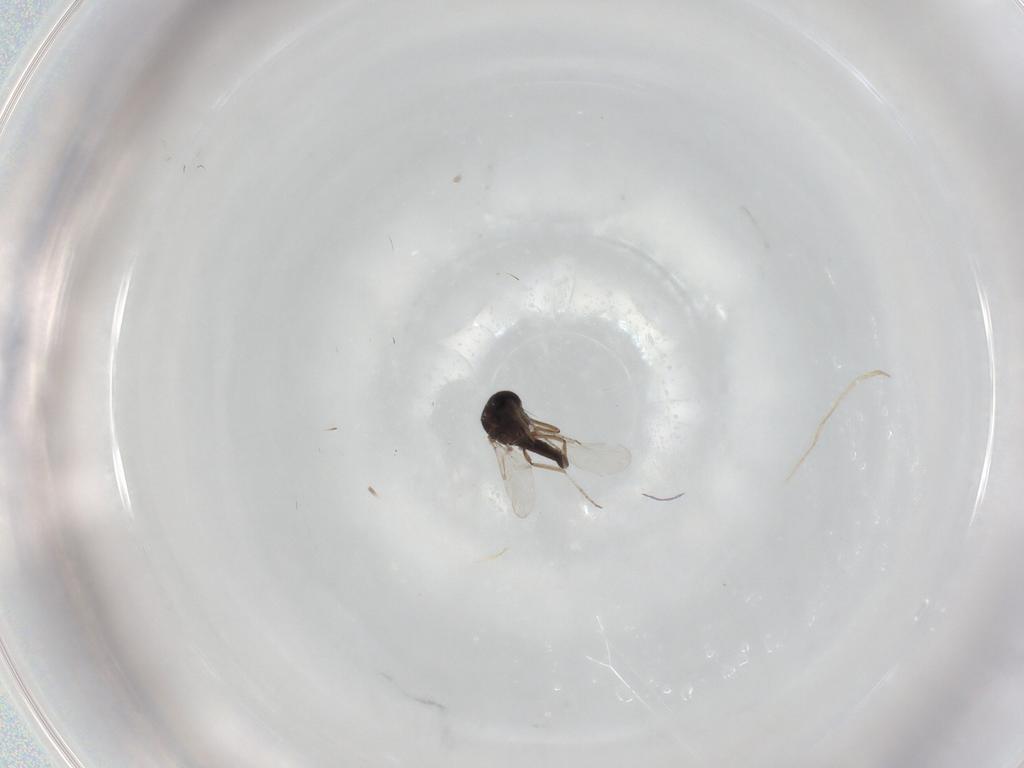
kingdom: Animalia
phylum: Arthropoda
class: Insecta
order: Diptera
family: Ceratopogonidae
